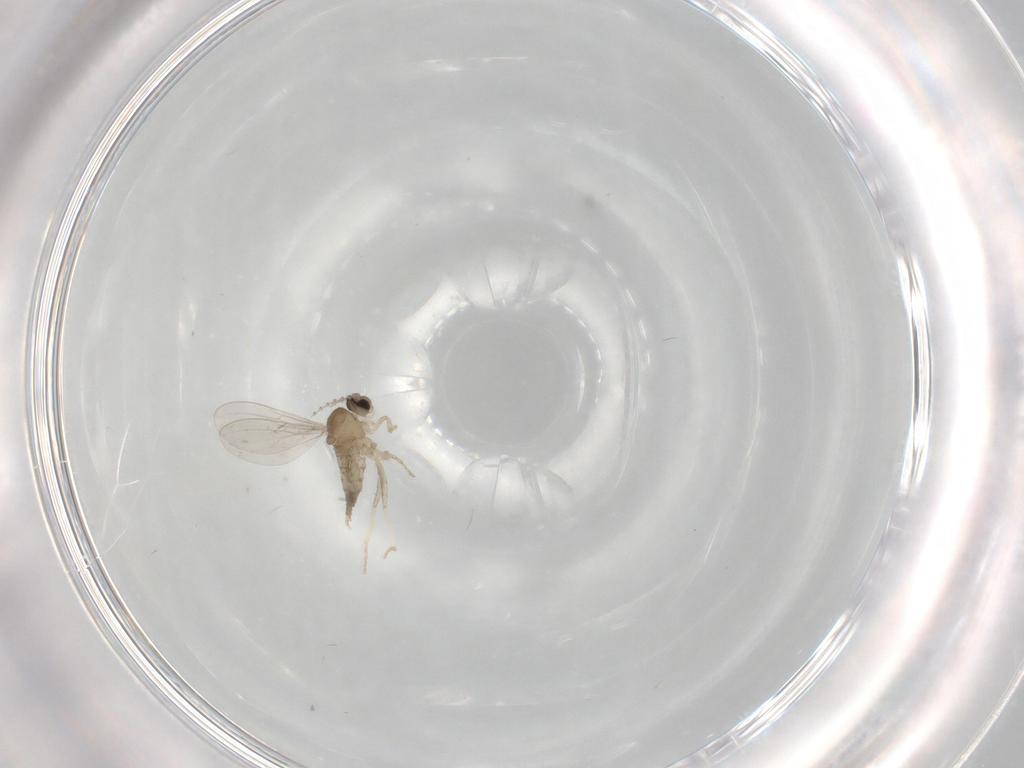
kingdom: Animalia
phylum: Arthropoda
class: Insecta
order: Diptera
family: Cecidomyiidae
